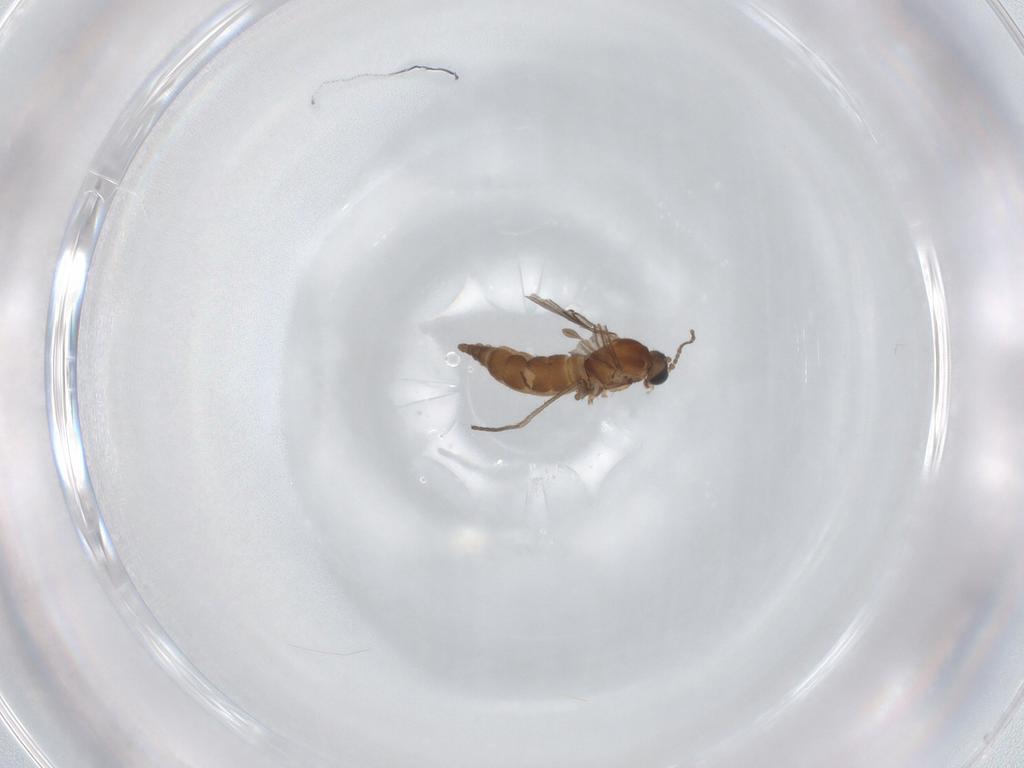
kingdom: Animalia
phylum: Arthropoda
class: Insecta
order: Diptera
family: Sciaridae
